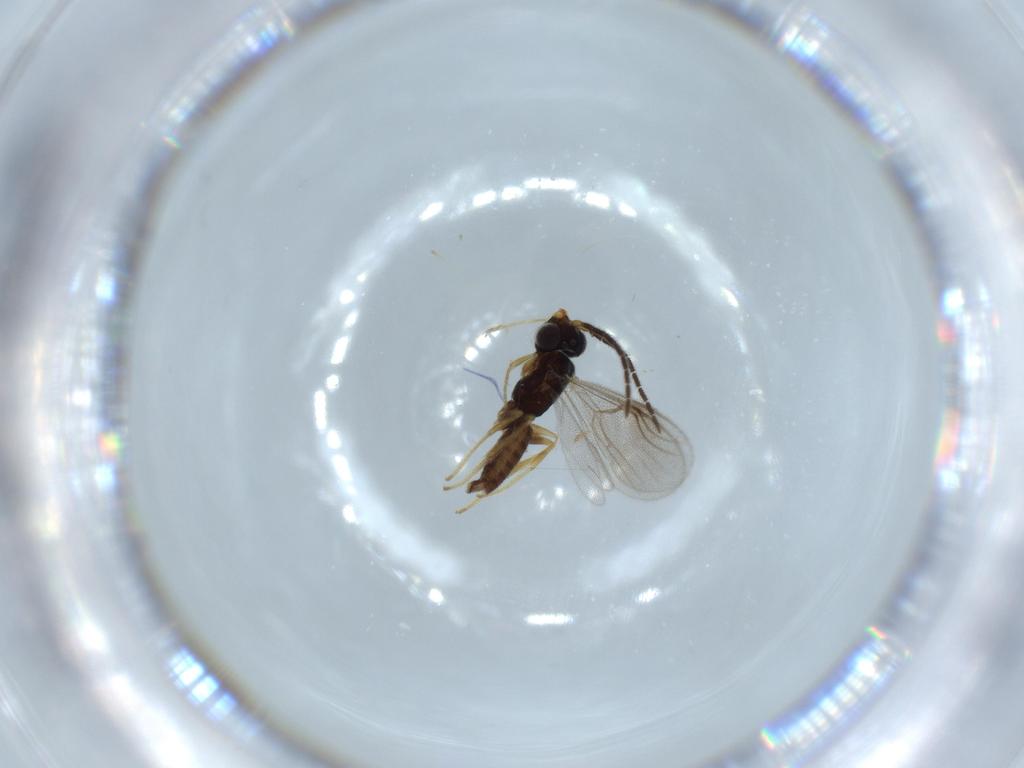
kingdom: Animalia
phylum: Arthropoda
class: Insecta
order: Hymenoptera
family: Dryinidae
